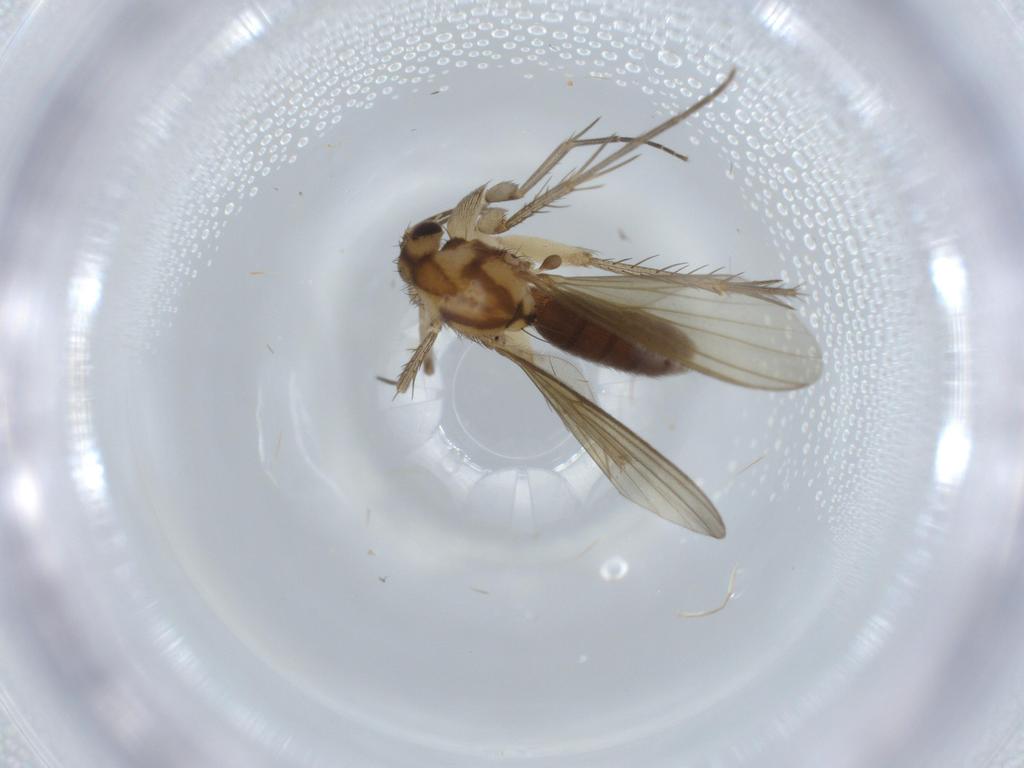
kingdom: Animalia
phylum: Arthropoda
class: Insecta
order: Diptera
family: Mycetophilidae
